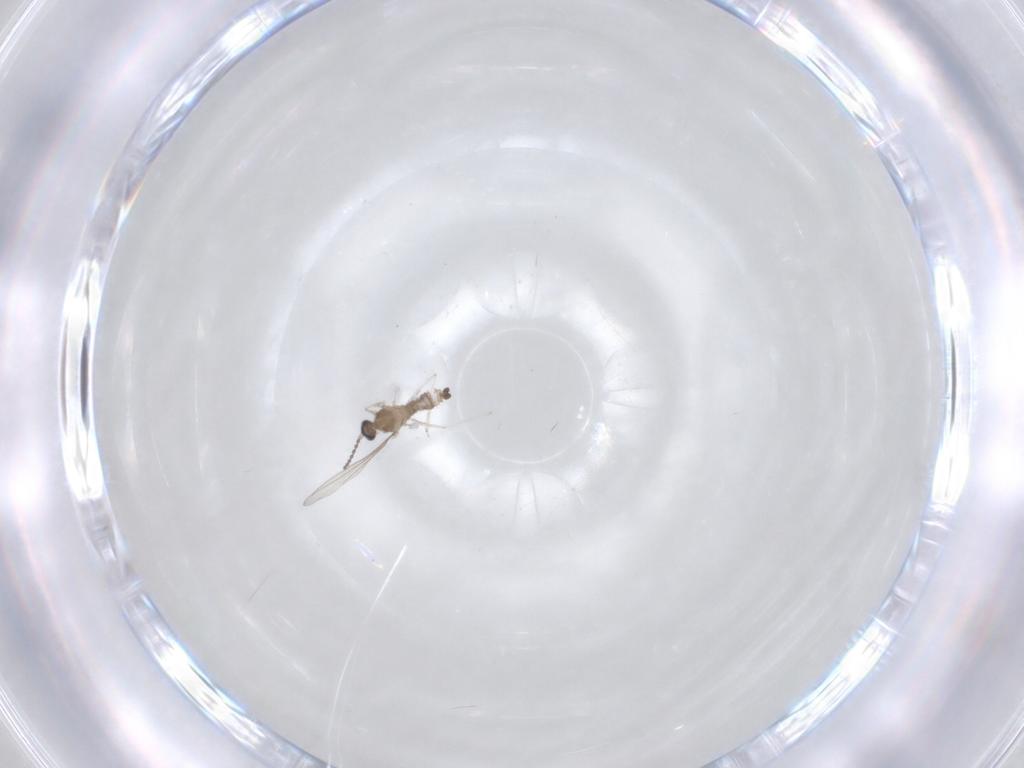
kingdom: Animalia
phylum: Arthropoda
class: Insecta
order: Diptera
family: Cecidomyiidae
